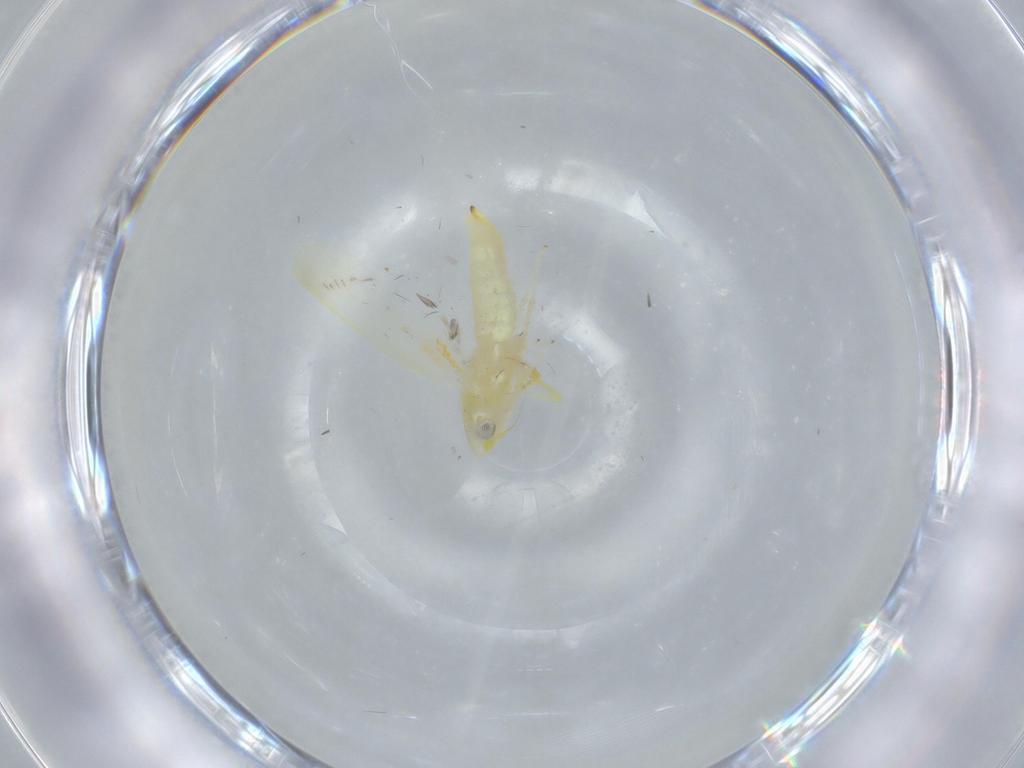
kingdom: Animalia
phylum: Arthropoda
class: Insecta
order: Hemiptera
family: Cicadellidae
